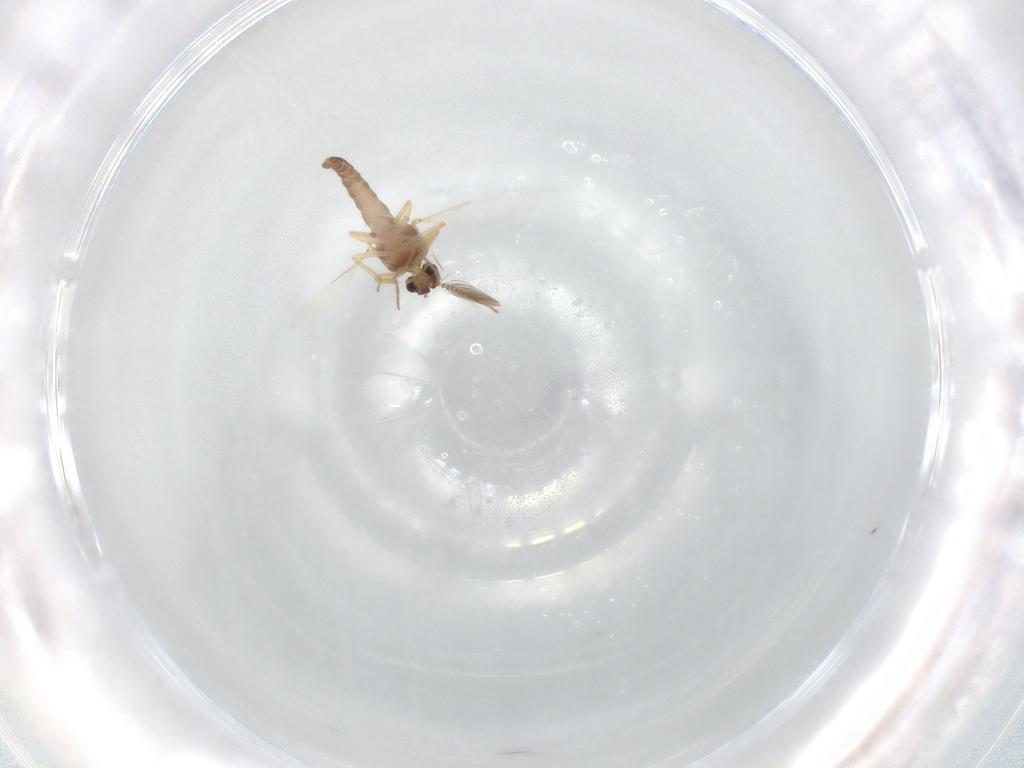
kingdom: Animalia
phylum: Arthropoda
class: Insecta
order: Diptera
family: Ceratopogonidae
